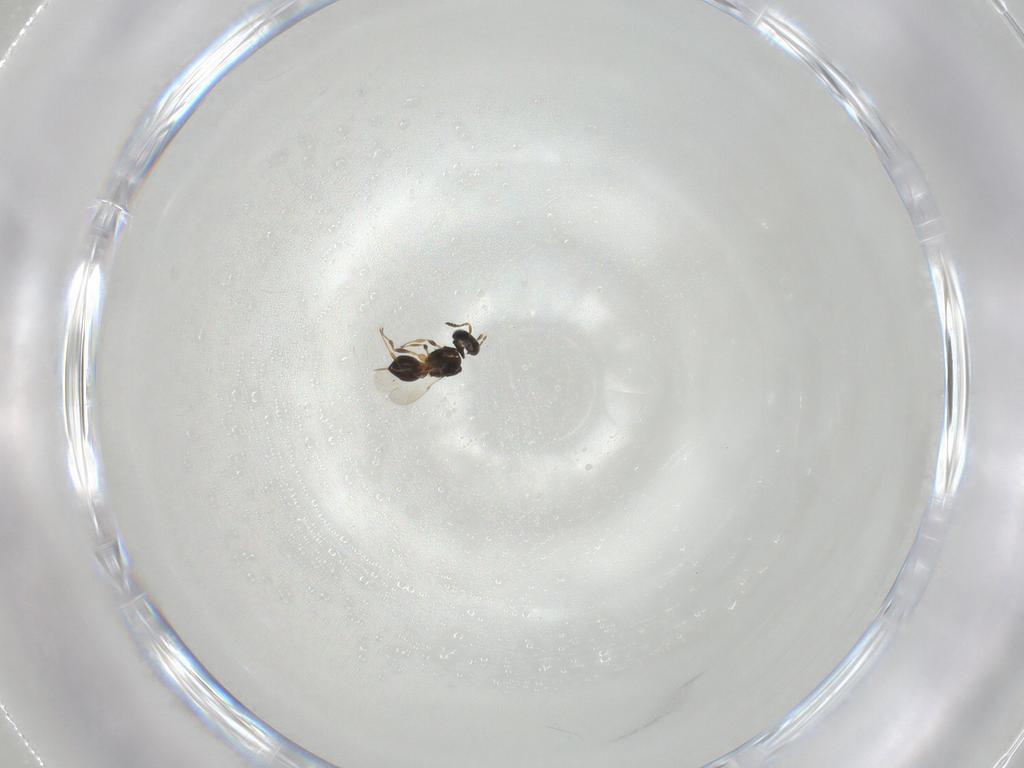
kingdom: Animalia
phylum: Arthropoda
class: Insecta
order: Hymenoptera
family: Platygastridae
